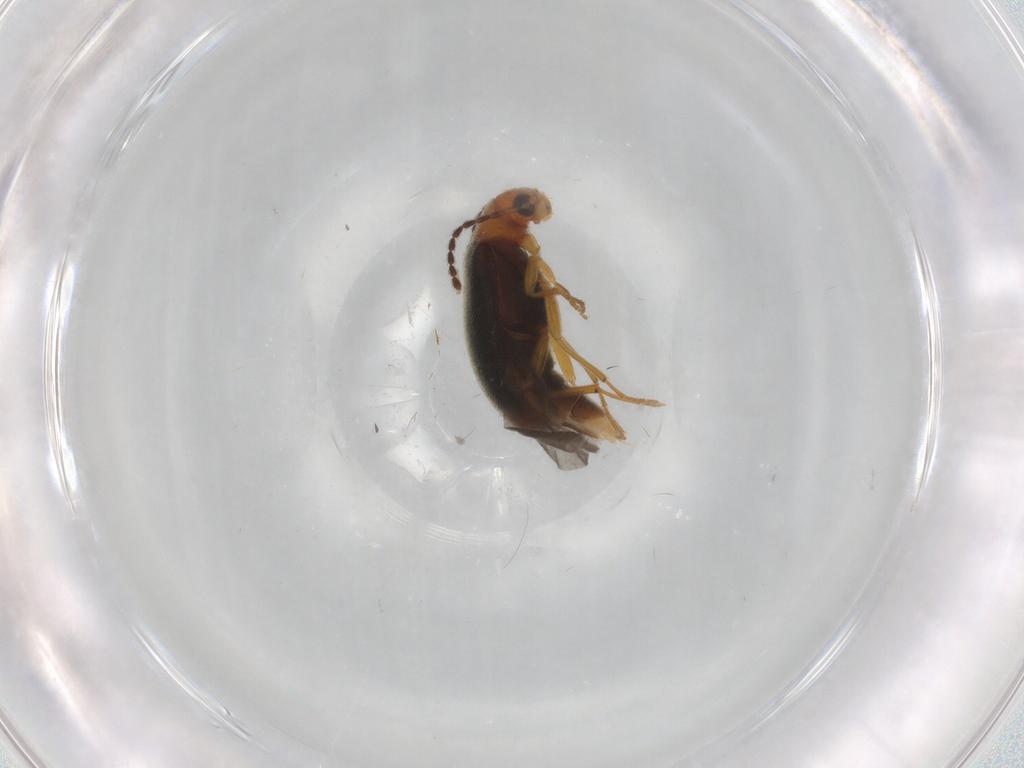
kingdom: Animalia
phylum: Arthropoda
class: Insecta
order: Coleoptera
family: Melandryidae
